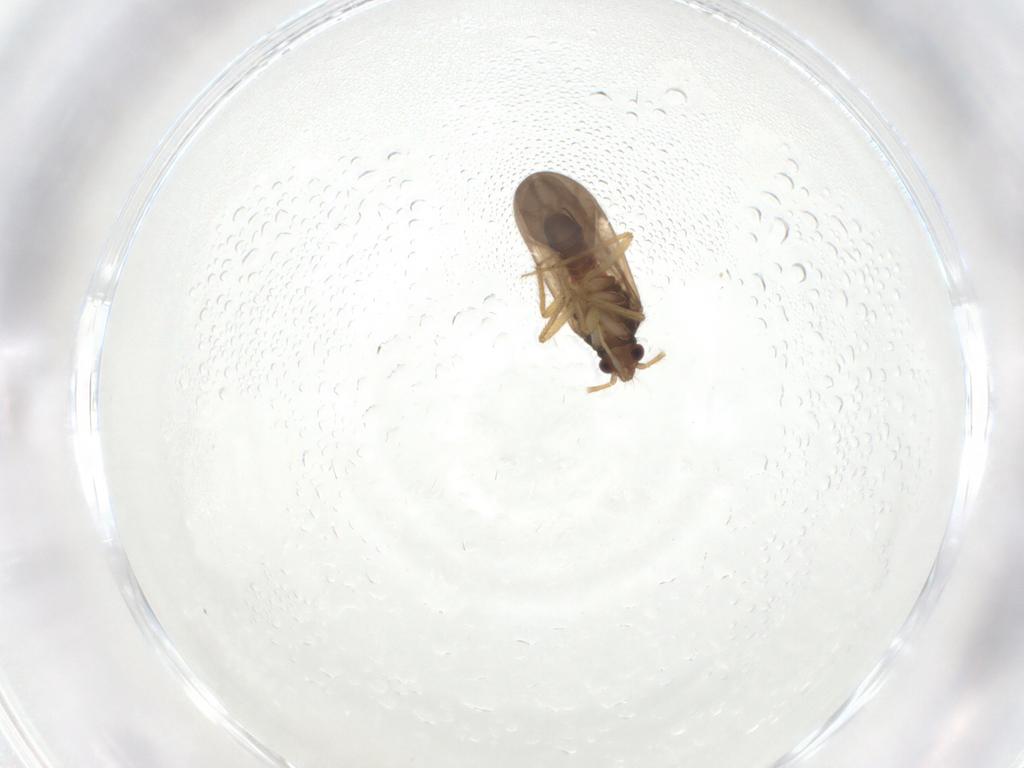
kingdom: Animalia
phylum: Arthropoda
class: Insecta
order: Hemiptera
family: Ceratocombidae
